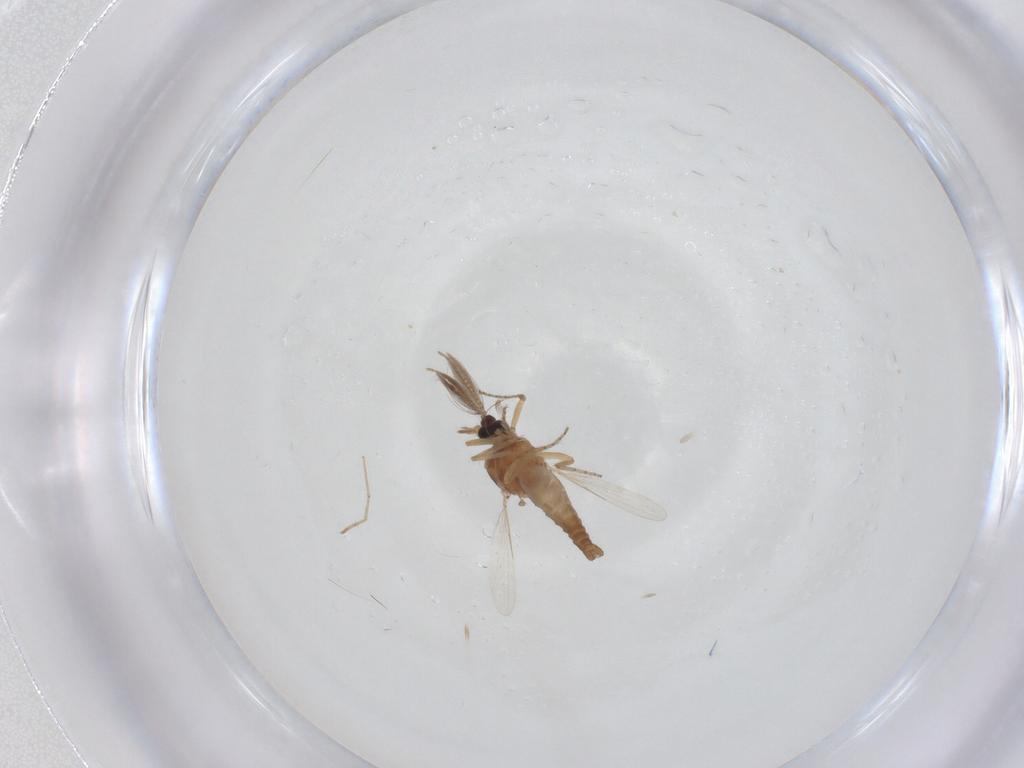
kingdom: Animalia
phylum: Arthropoda
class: Insecta
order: Diptera
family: Ceratopogonidae
